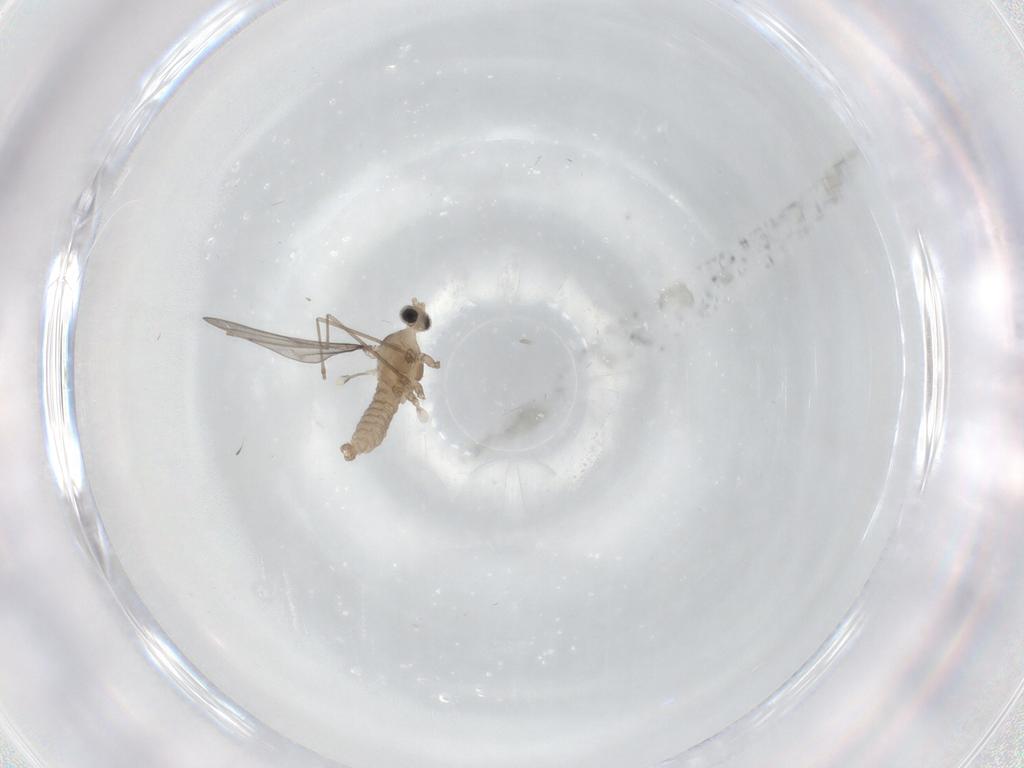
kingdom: Animalia
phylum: Arthropoda
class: Insecta
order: Diptera
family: Cecidomyiidae
